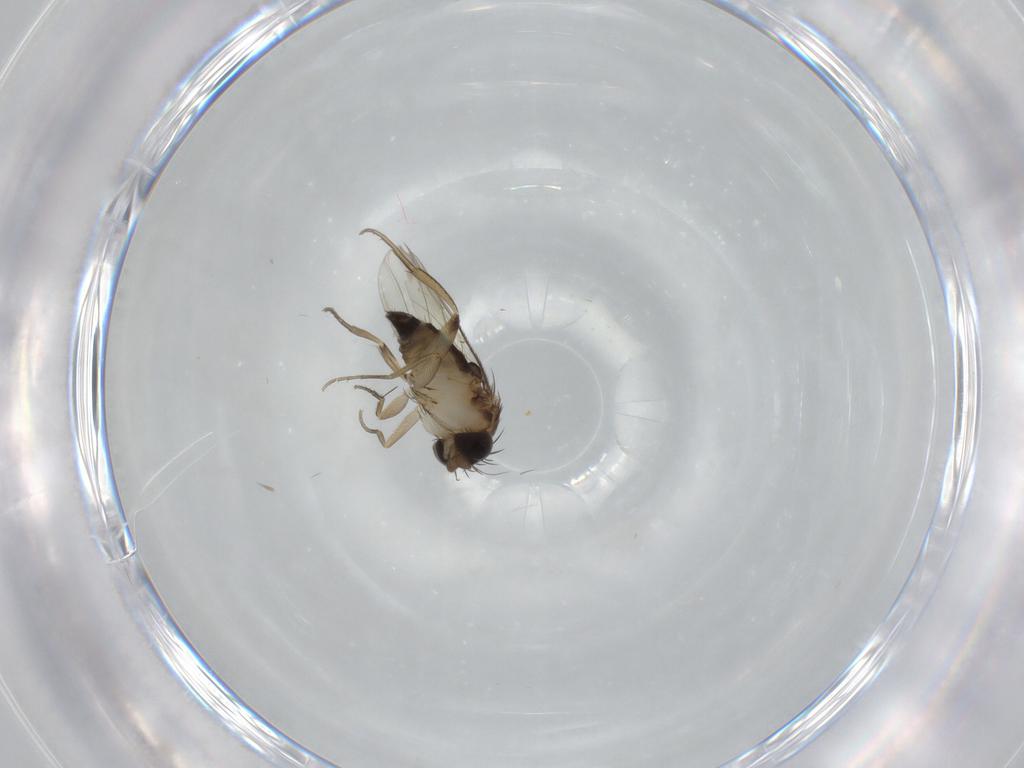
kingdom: Animalia
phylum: Arthropoda
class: Insecta
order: Diptera
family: Phoridae
